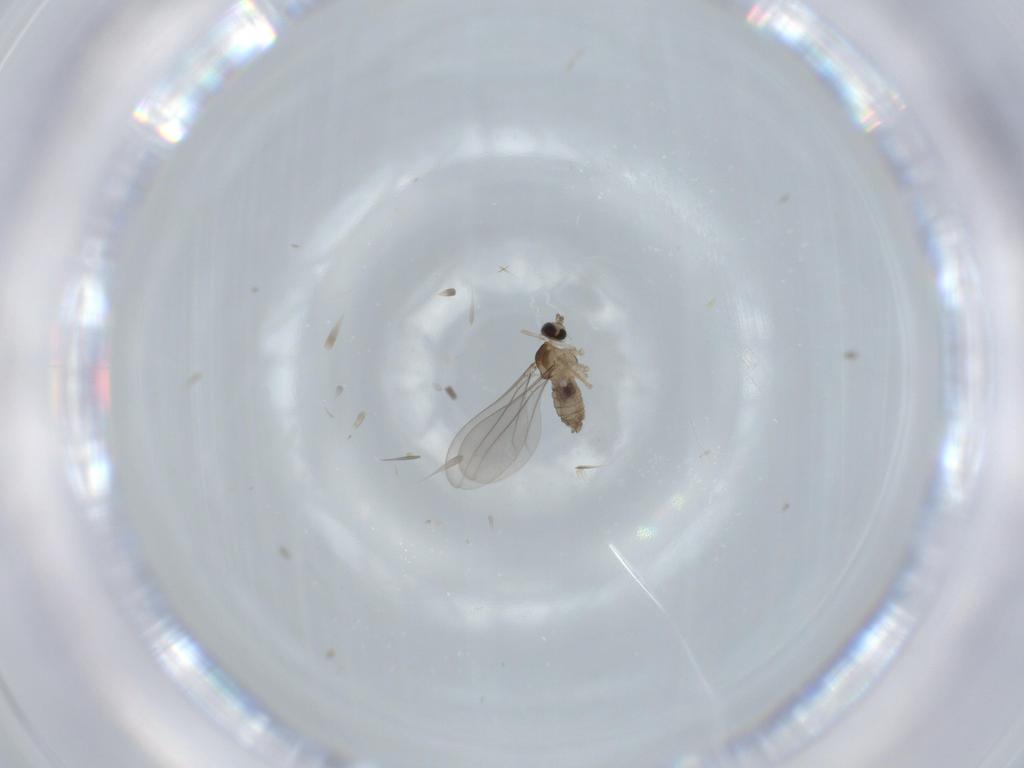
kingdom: Animalia
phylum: Arthropoda
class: Insecta
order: Diptera
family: Cecidomyiidae
